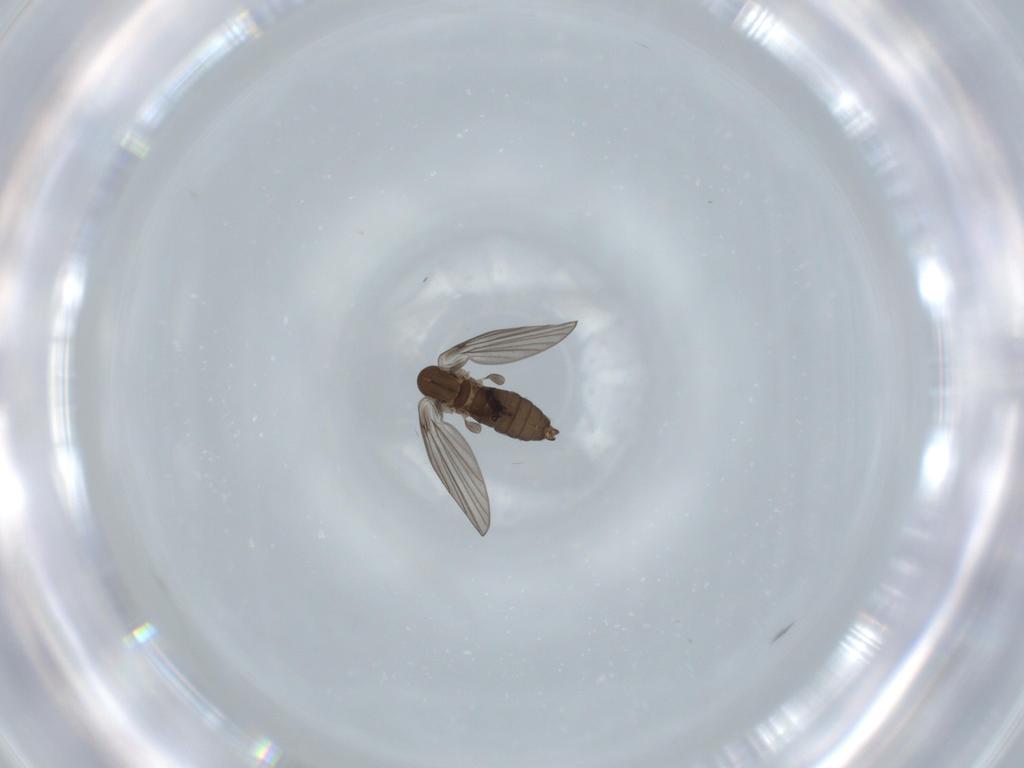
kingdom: Animalia
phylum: Arthropoda
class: Insecta
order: Diptera
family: Psychodidae
